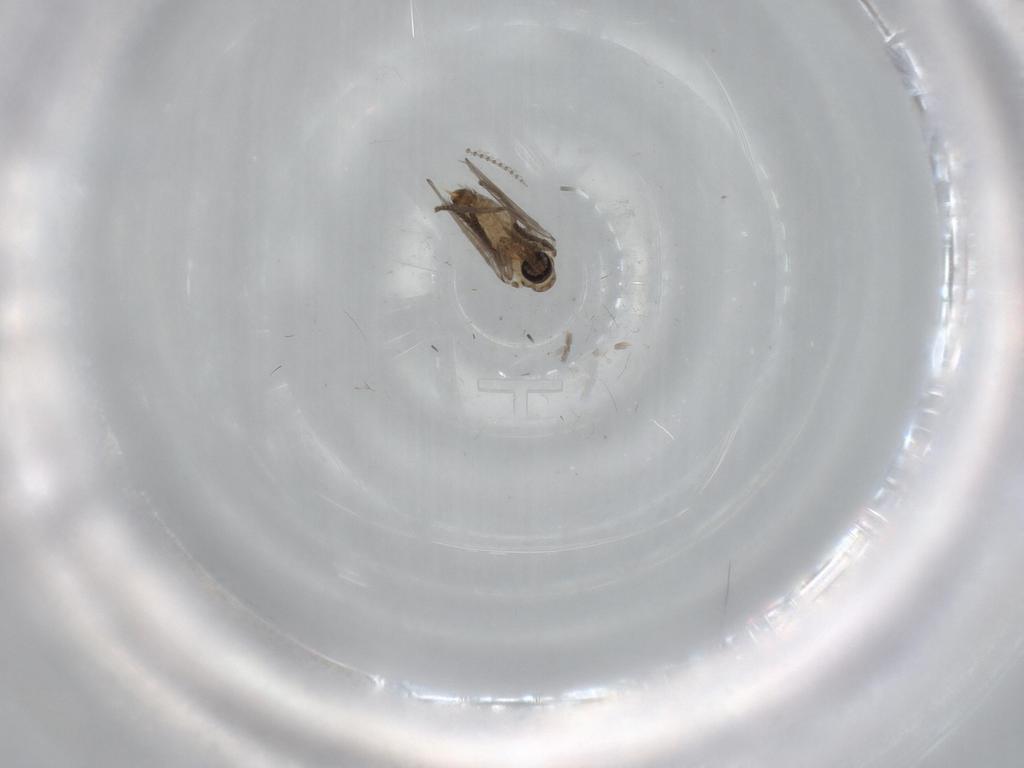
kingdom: Animalia
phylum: Arthropoda
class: Insecta
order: Diptera
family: Psychodidae
